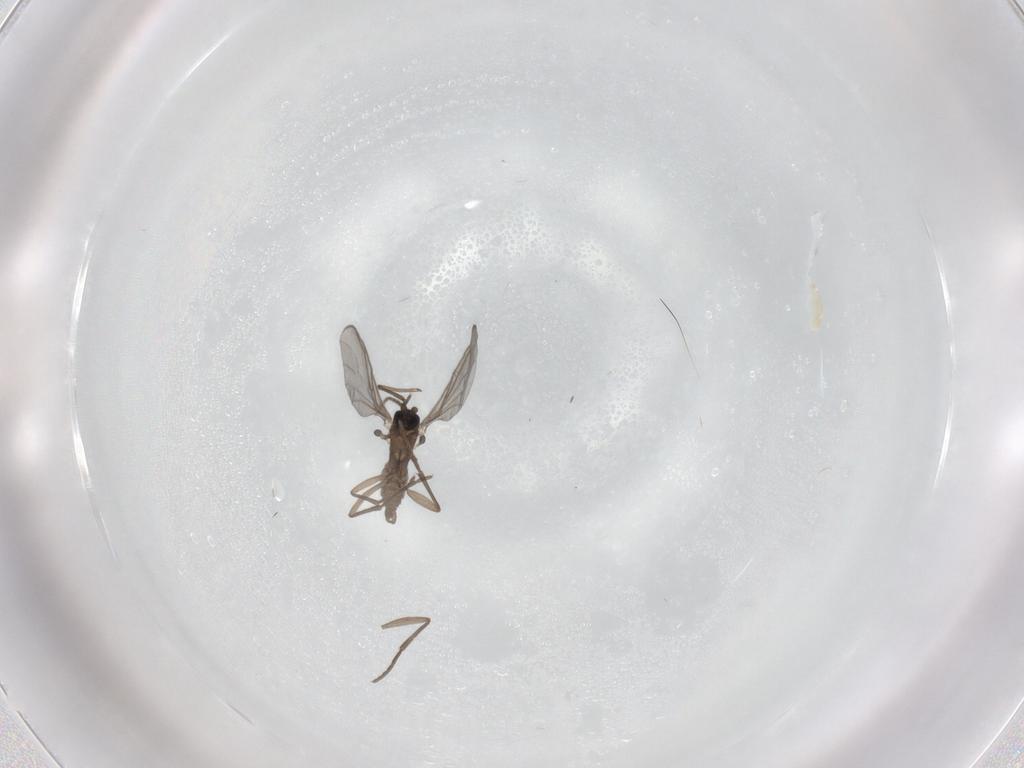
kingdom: Animalia
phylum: Arthropoda
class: Insecta
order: Diptera
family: Sciaridae
